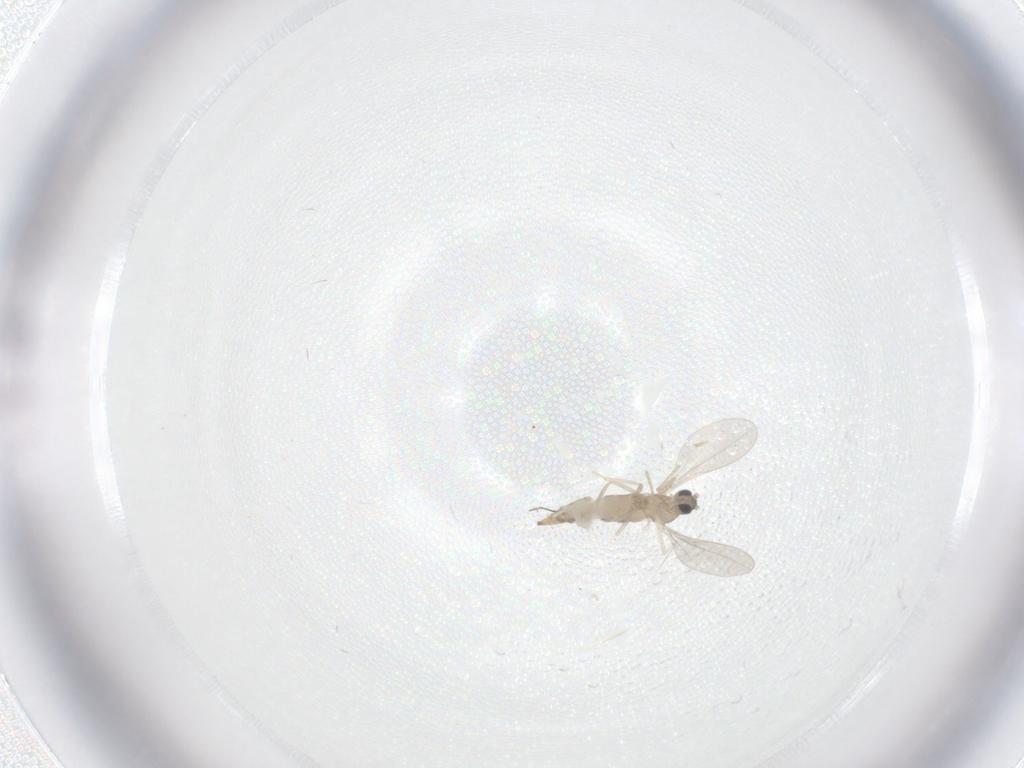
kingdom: Animalia
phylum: Arthropoda
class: Insecta
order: Diptera
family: Cecidomyiidae
